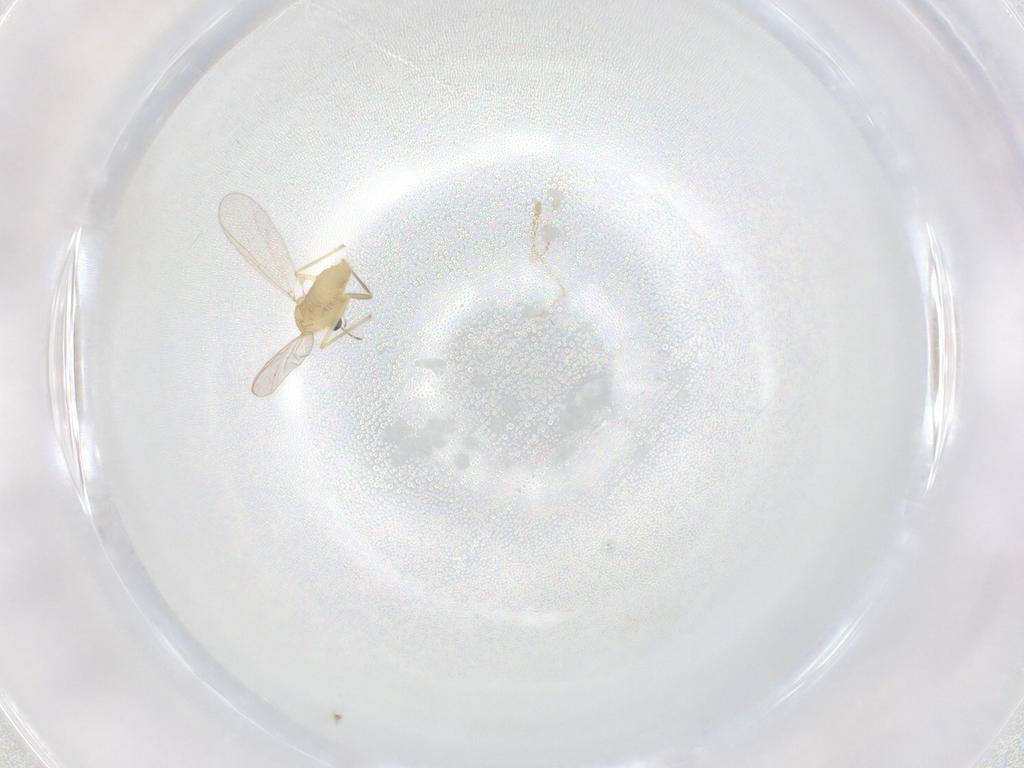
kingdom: Animalia
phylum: Arthropoda
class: Insecta
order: Diptera
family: Chironomidae
